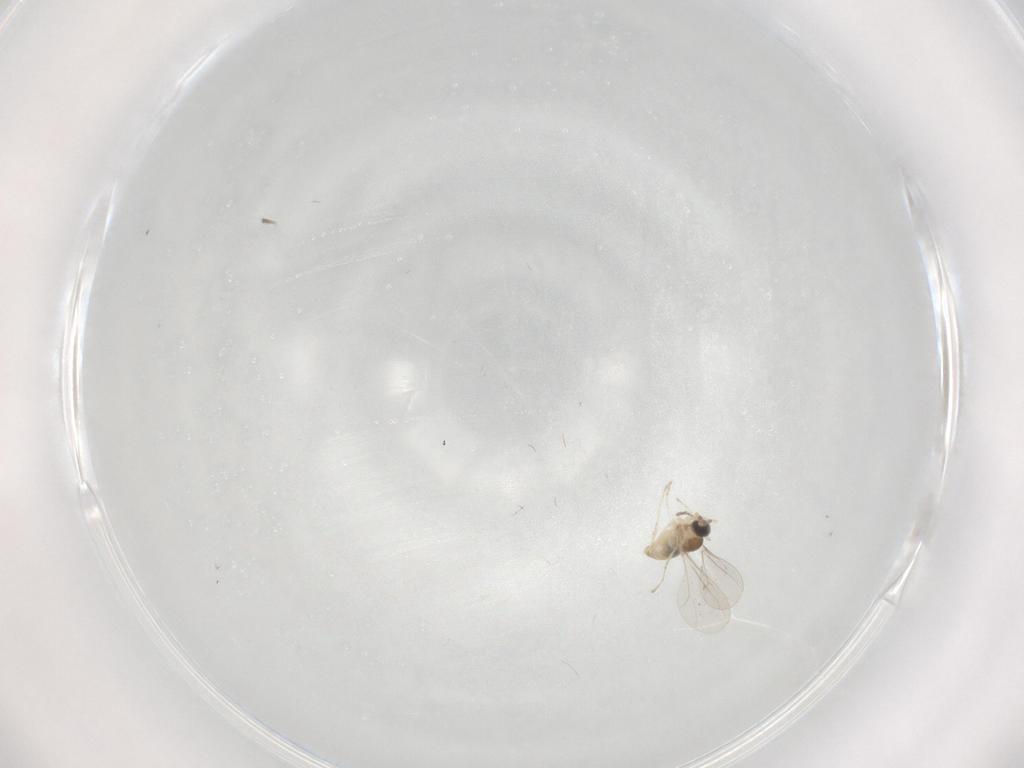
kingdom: Animalia
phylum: Arthropoda
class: Insecta
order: Diptera
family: Cecidomyiidae
